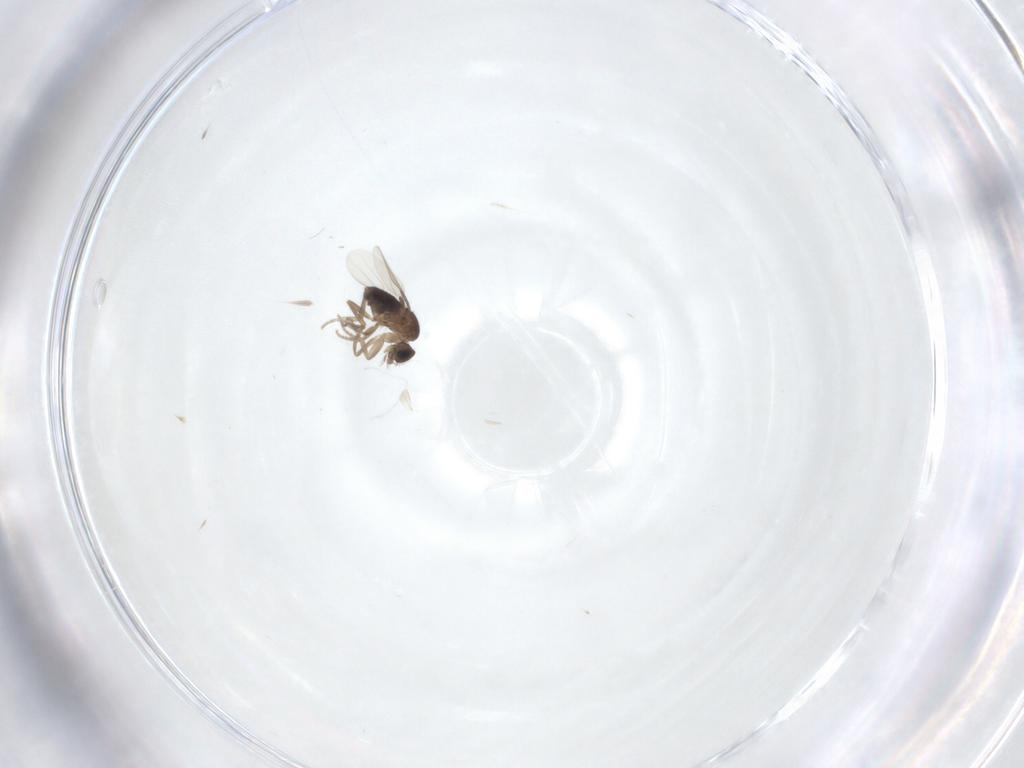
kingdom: Animalia
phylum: Arthropoda
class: Insecta
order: Diptera
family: Phoridae
